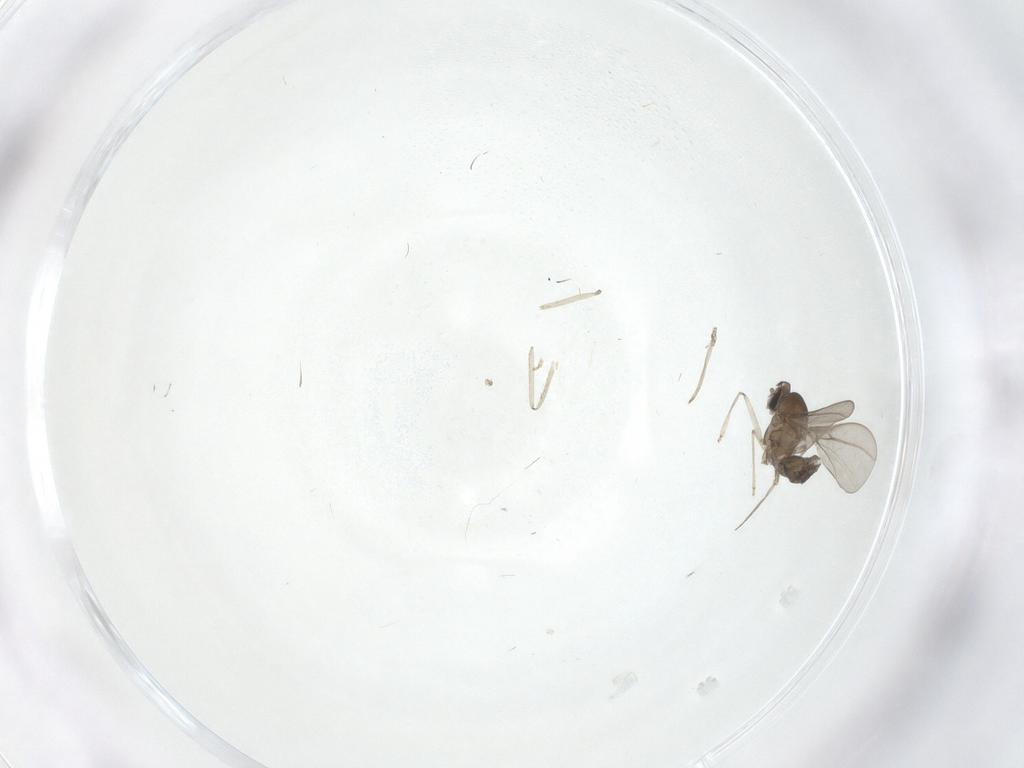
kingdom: Animalia
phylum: Arthropoda
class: Insecta
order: Diptera
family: Cecidomyiidae
